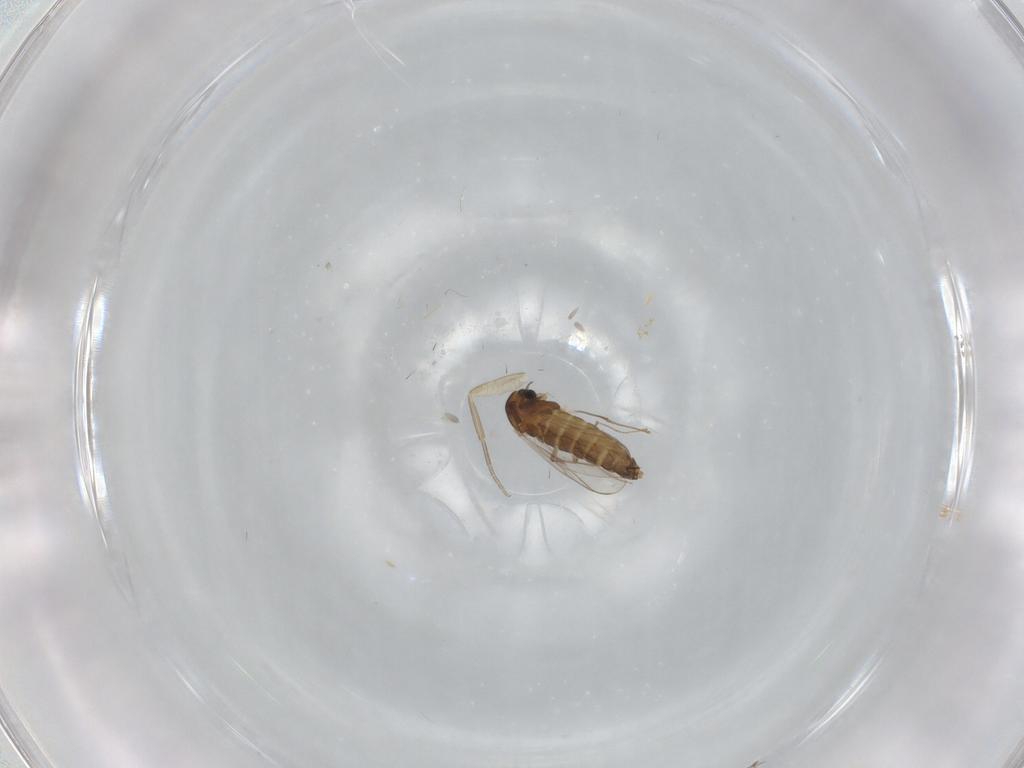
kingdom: Animalia
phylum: Arthropoda
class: Insecta
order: Diptera
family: Chironomidae
